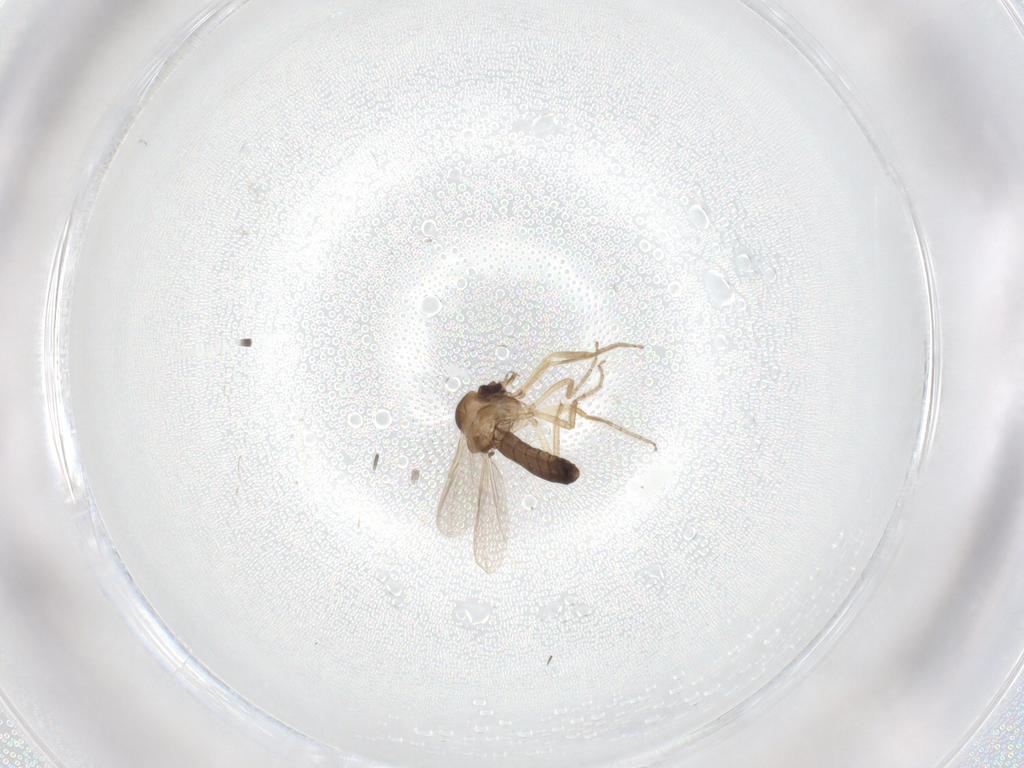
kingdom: Animalia
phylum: Arthropoda
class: Insecta
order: Diptera
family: Ceratopogonidae
